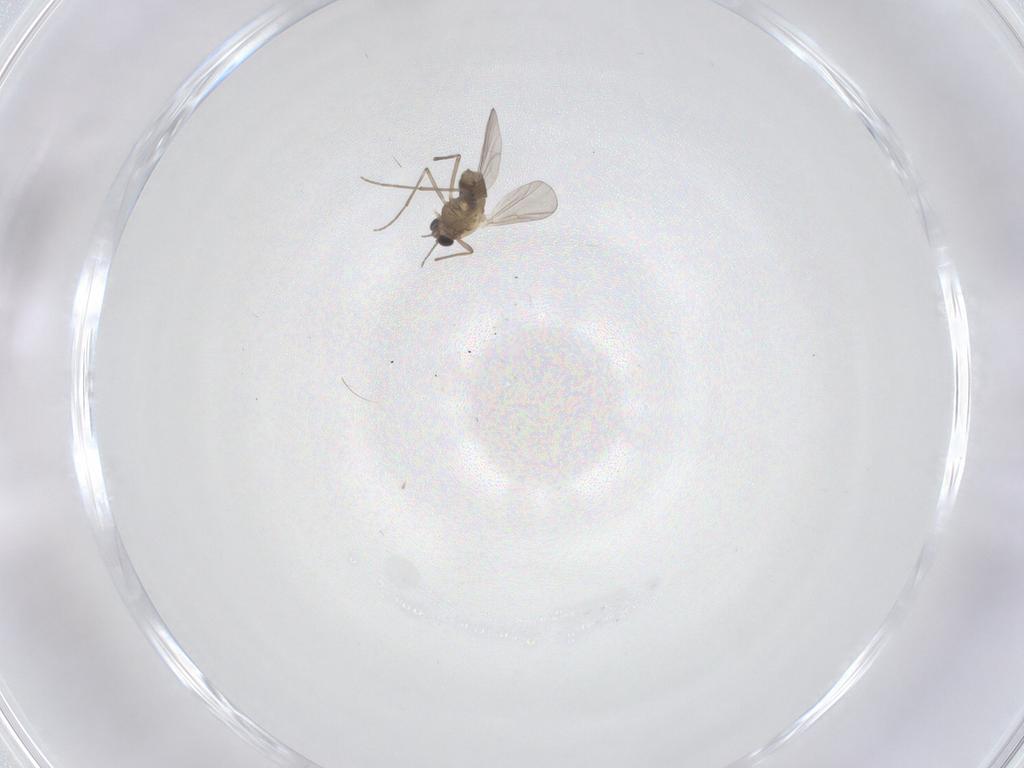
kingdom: Animalia
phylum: Arthropoda
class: Insecta
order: Diptera
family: Chironomidae
